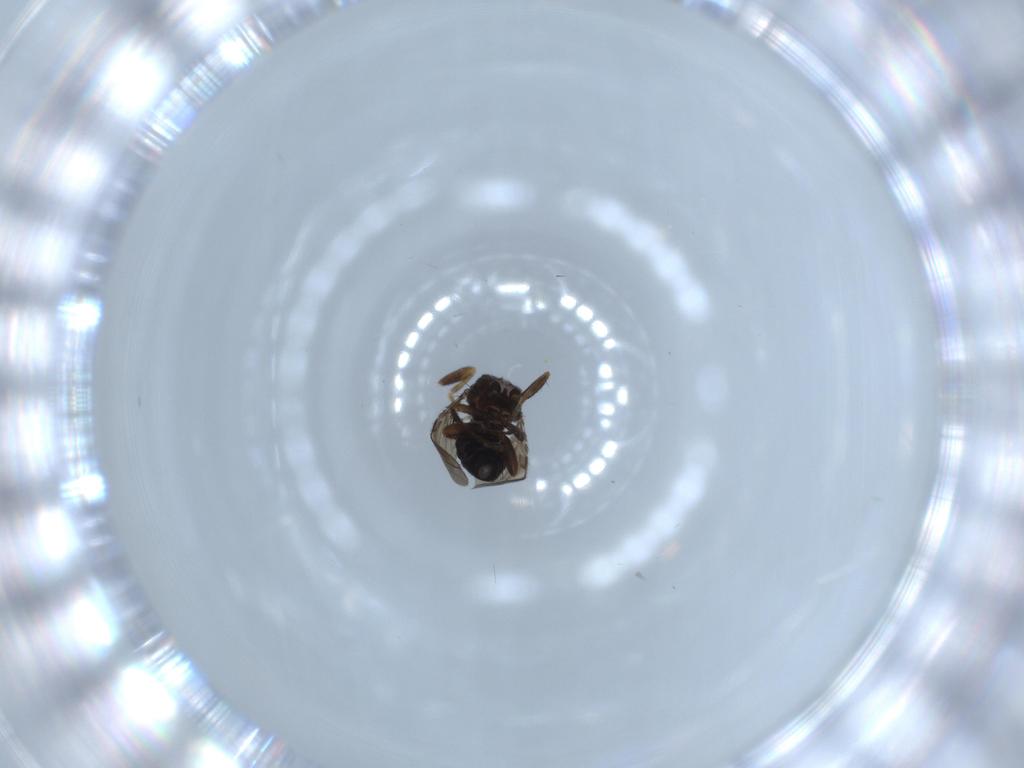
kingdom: Animalia
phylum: Arthropoda
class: Insecta
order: Diptera
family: Sphaeroceridae
